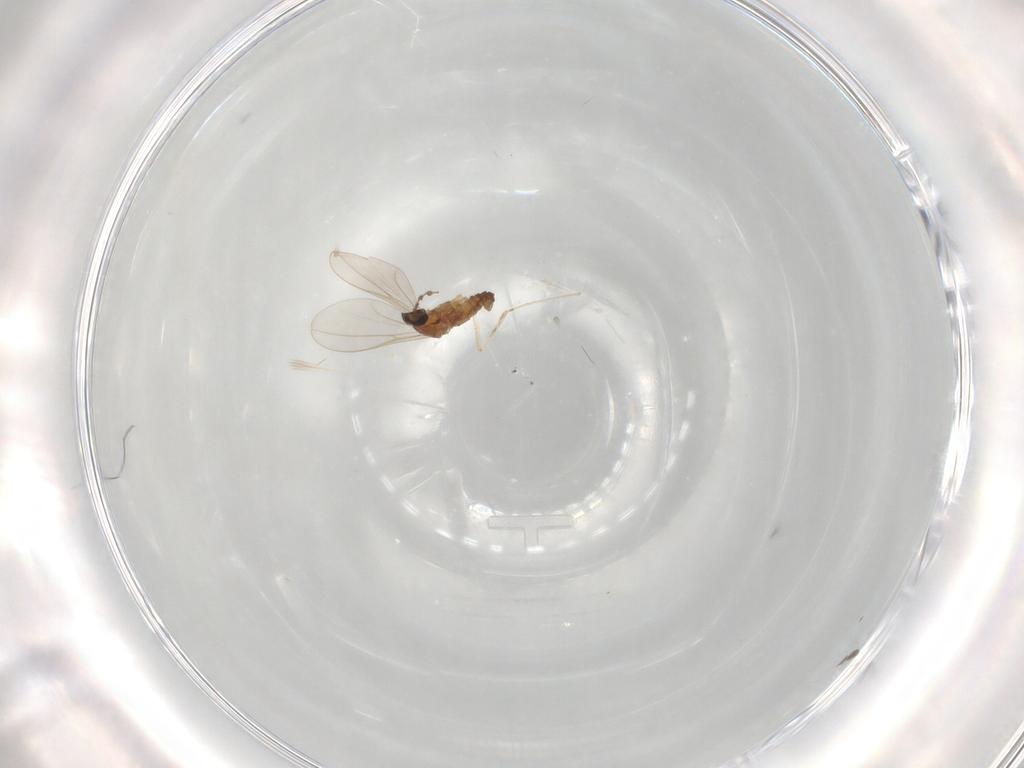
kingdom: Animalia
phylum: Arthropoda
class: Insecta
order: Diptera
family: Cecidomyiidae
